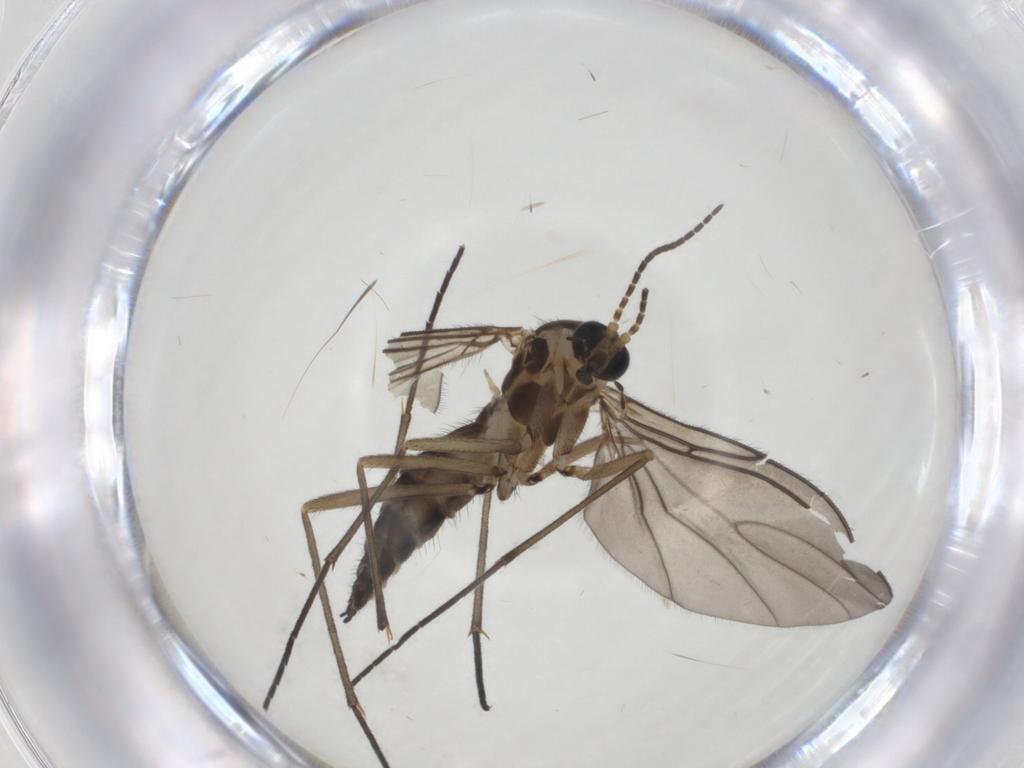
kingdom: Animalia
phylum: Arthropoda
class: Insecta
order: Diptera
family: Sciaridae
